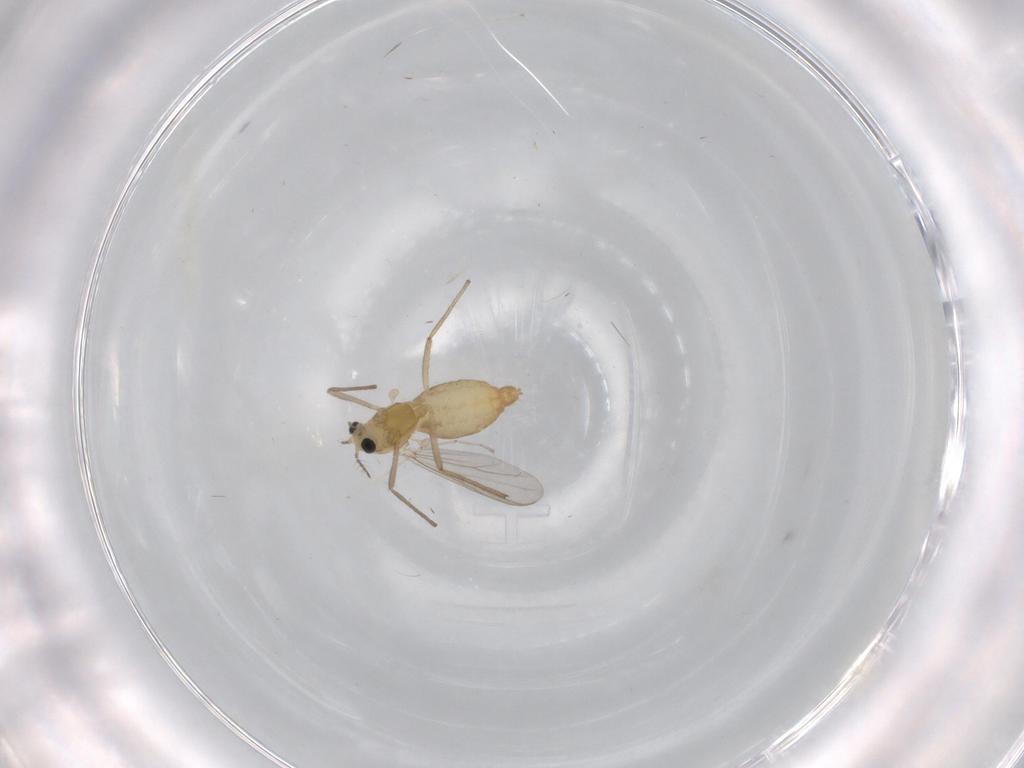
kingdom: Animalia
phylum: Arthropoda
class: Insecta
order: Diptera
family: Chironomidae
